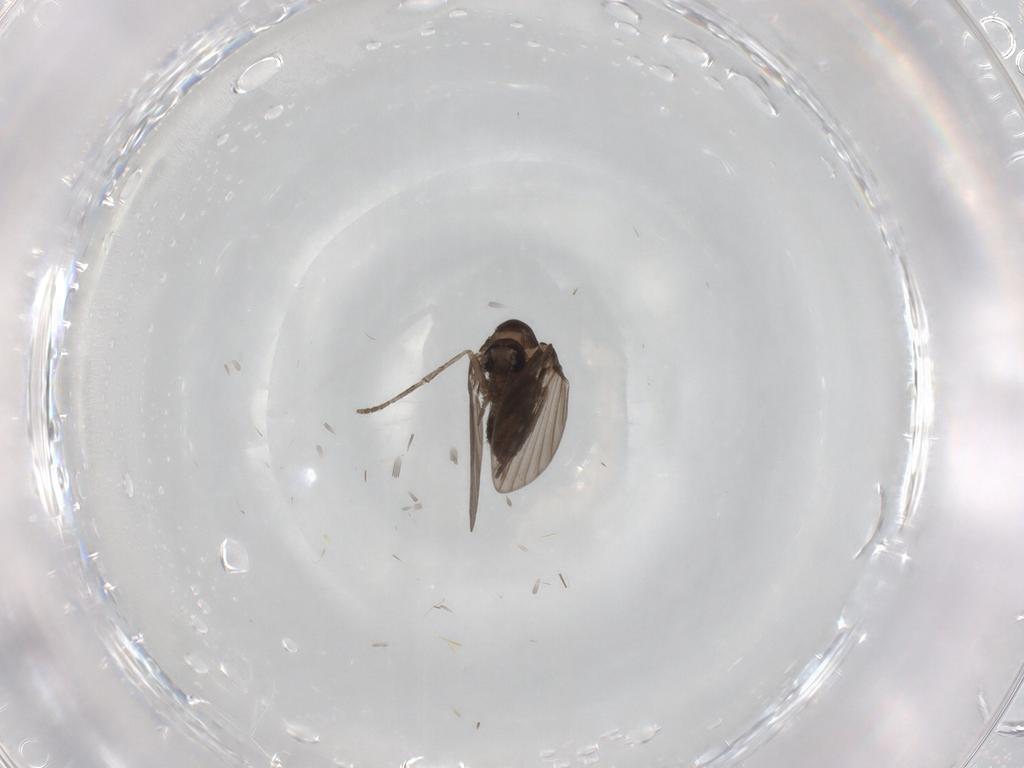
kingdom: Animalia
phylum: Arthropoda
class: Insecta
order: Diptera
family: Psychodidae
